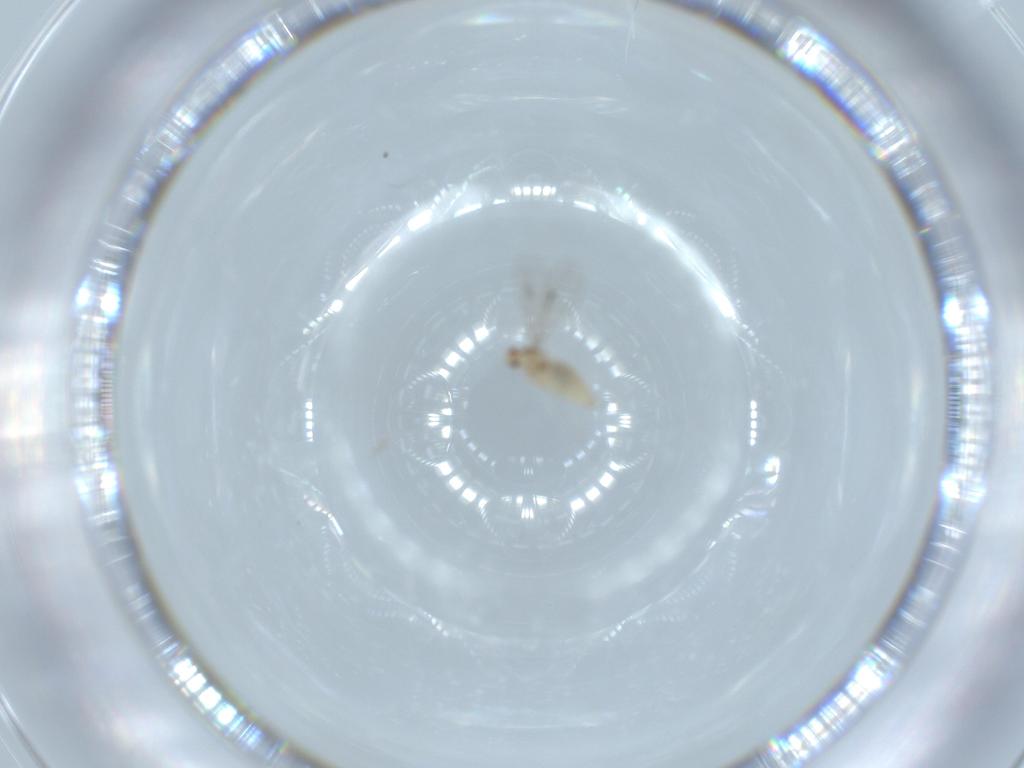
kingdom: Animalia
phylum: Arthropoda
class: Insecta
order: Diptera
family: Cecidomyiidae
